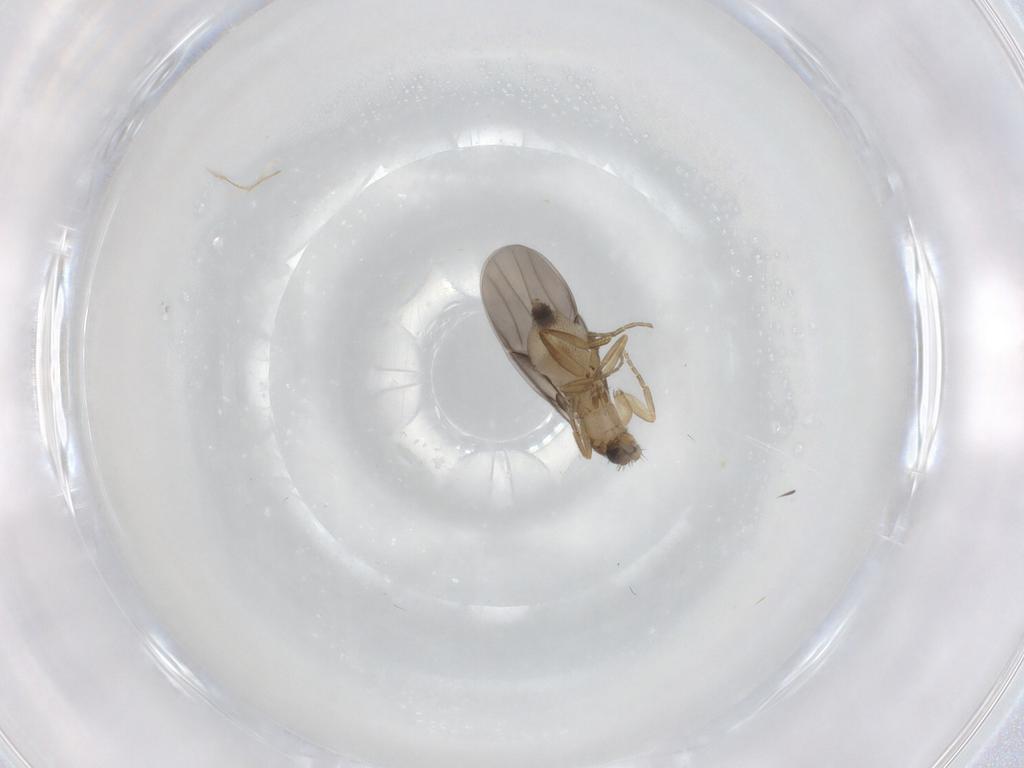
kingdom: Animalia
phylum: Arthropoda
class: Insecta
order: Diptera
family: Phoridae
